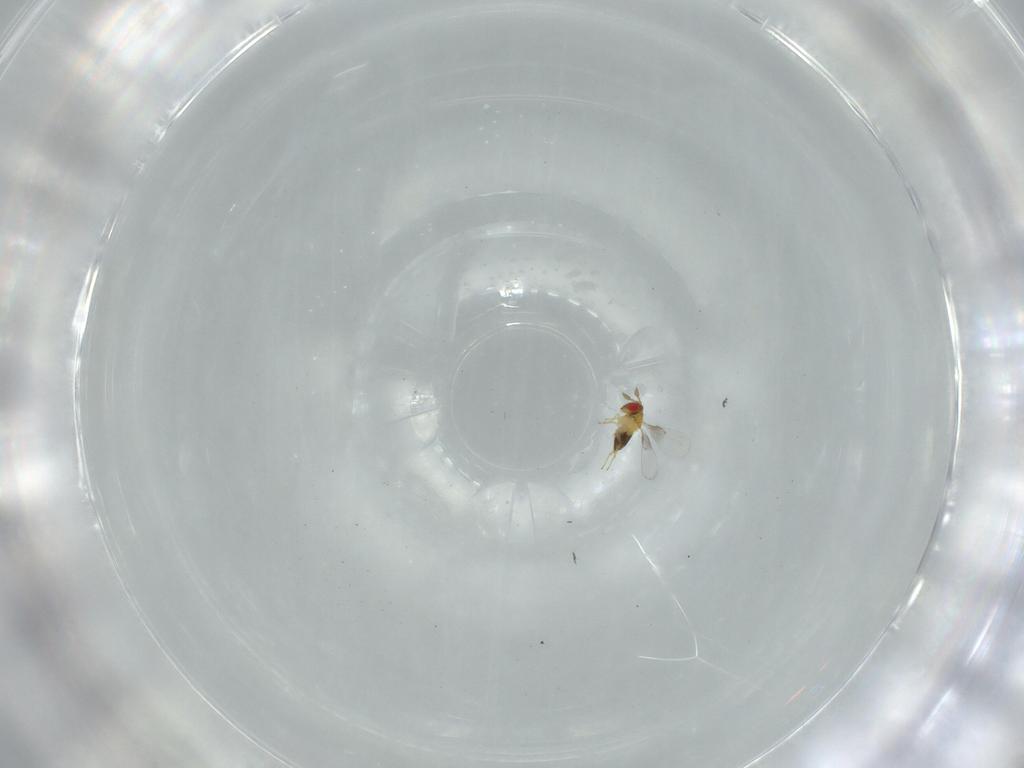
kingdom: Animalia
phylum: Arthropoda
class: Insecta
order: Hymenoptera
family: Trichogrammatidae
